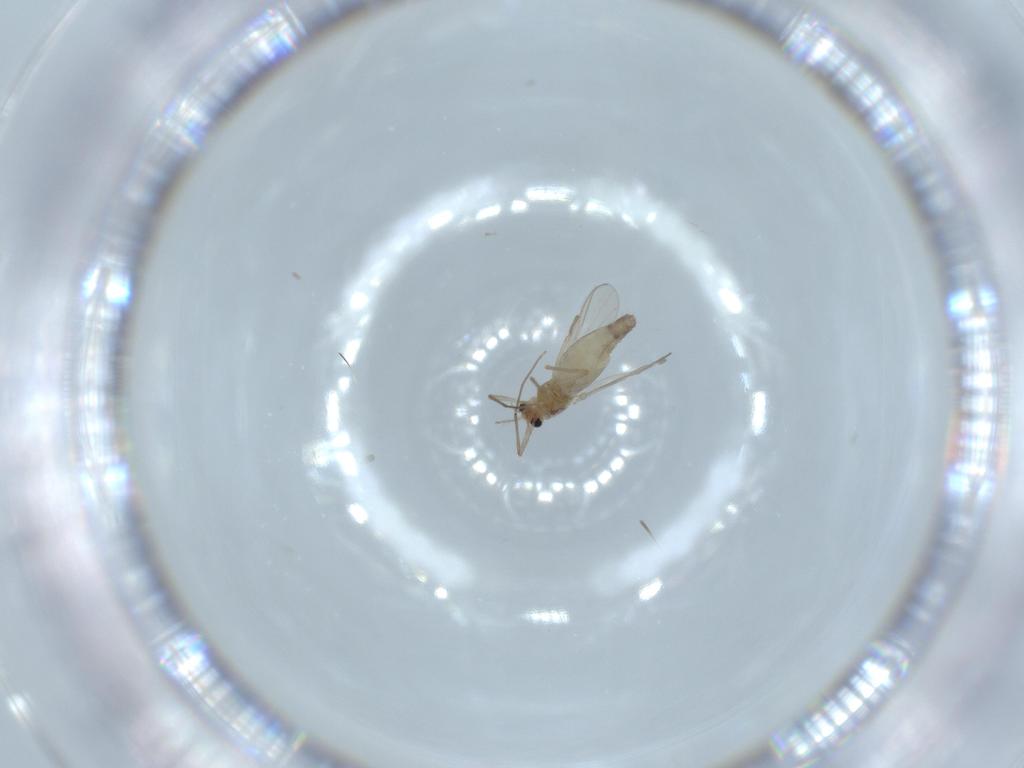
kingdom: Animalia
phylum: Arthropoda
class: Insecta
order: Diptera
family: Chironomidae
